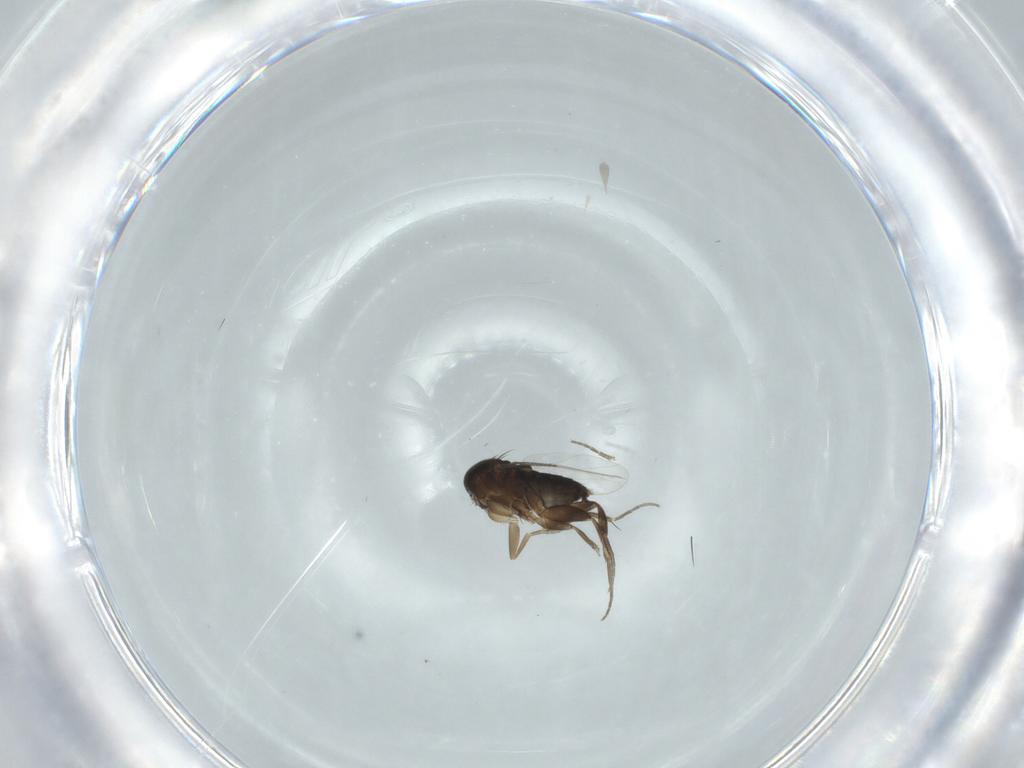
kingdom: Animalia
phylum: Arthropoda
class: Insecta
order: Diptera
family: Phoridae
